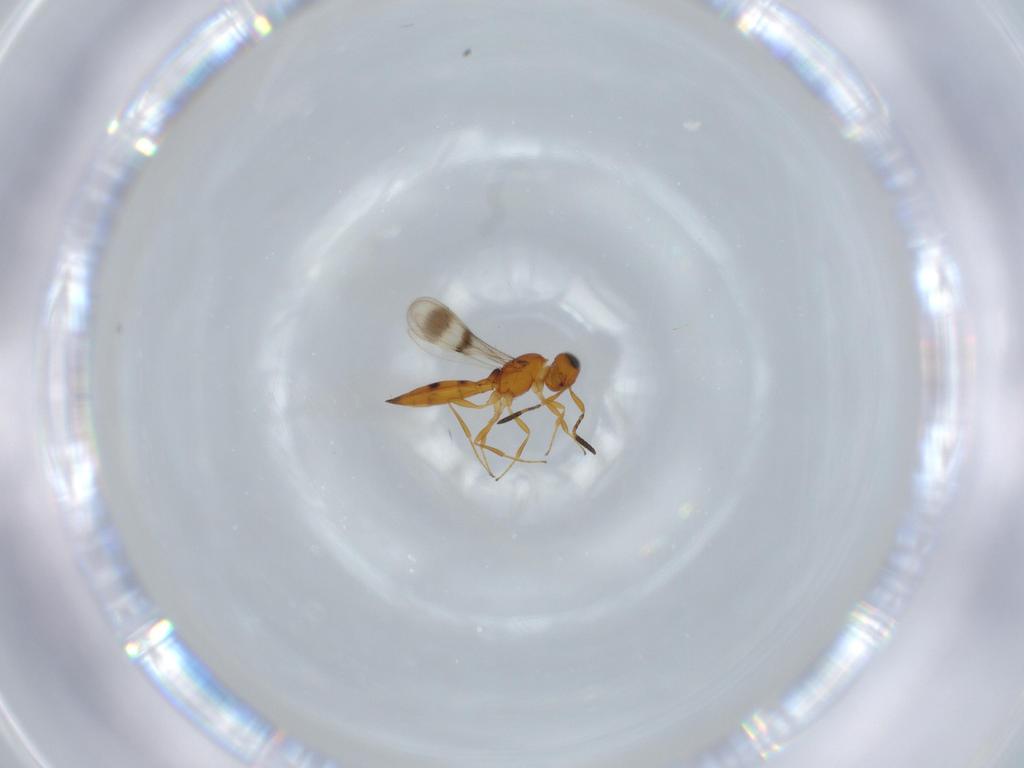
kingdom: Animalia
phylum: Arthropoda
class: Insecta
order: Hymenoptera
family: Scelionidae
